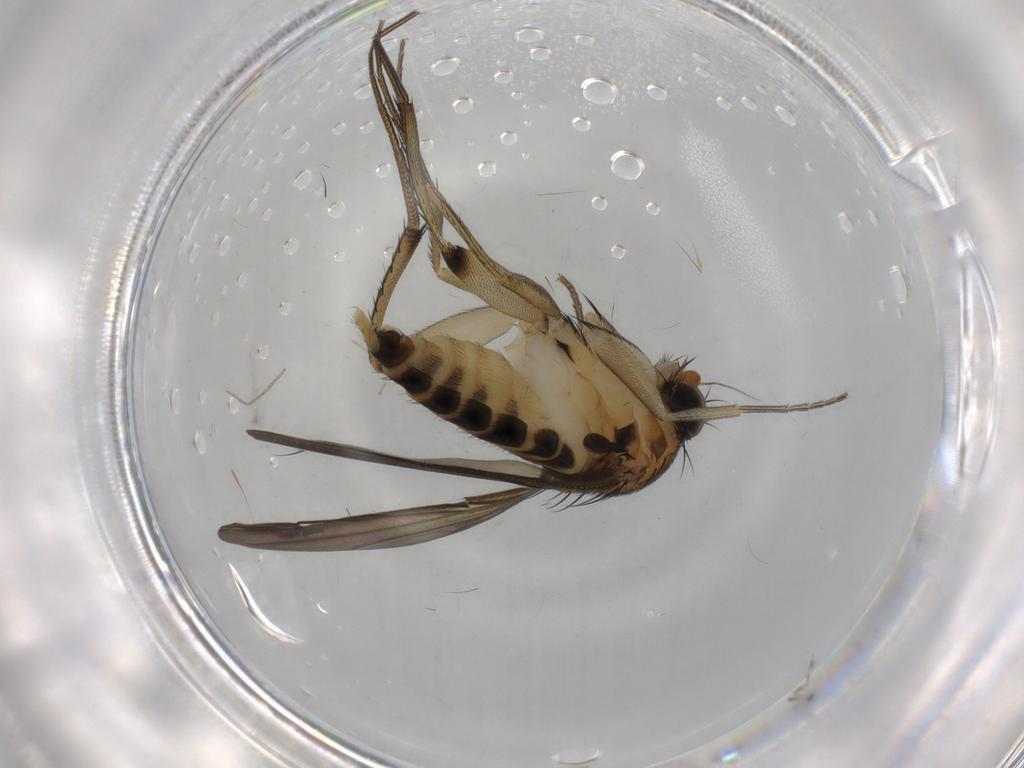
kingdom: Animalia
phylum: Arthropoda
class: Insecta
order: Diptera
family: Phoridae
